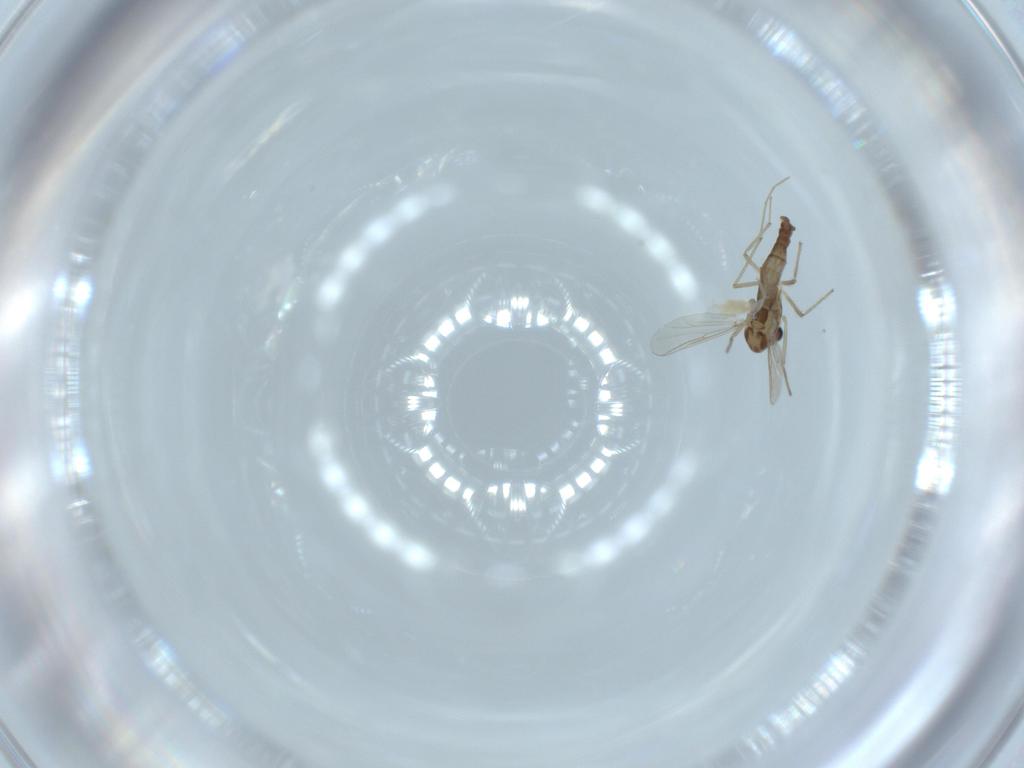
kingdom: Animalia
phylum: Arthropoda
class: Insecta
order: Diptera
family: Chironomidae
